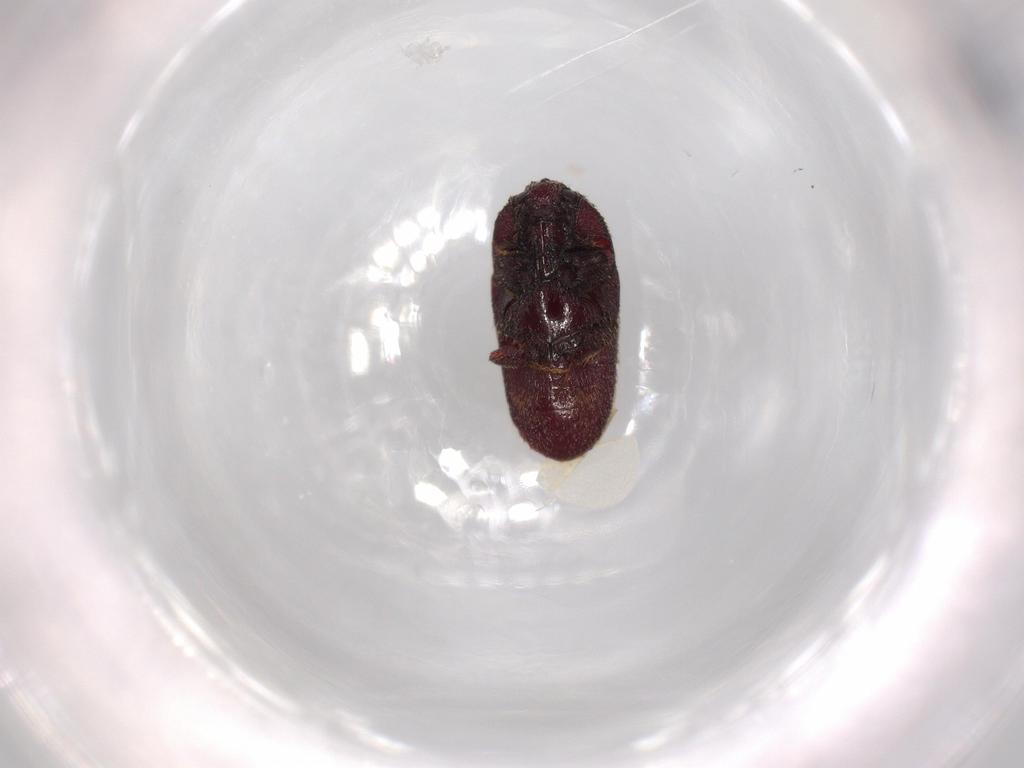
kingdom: Animalia
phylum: Arthropoda
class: Insecta
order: Coleoptera
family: Throscidae
